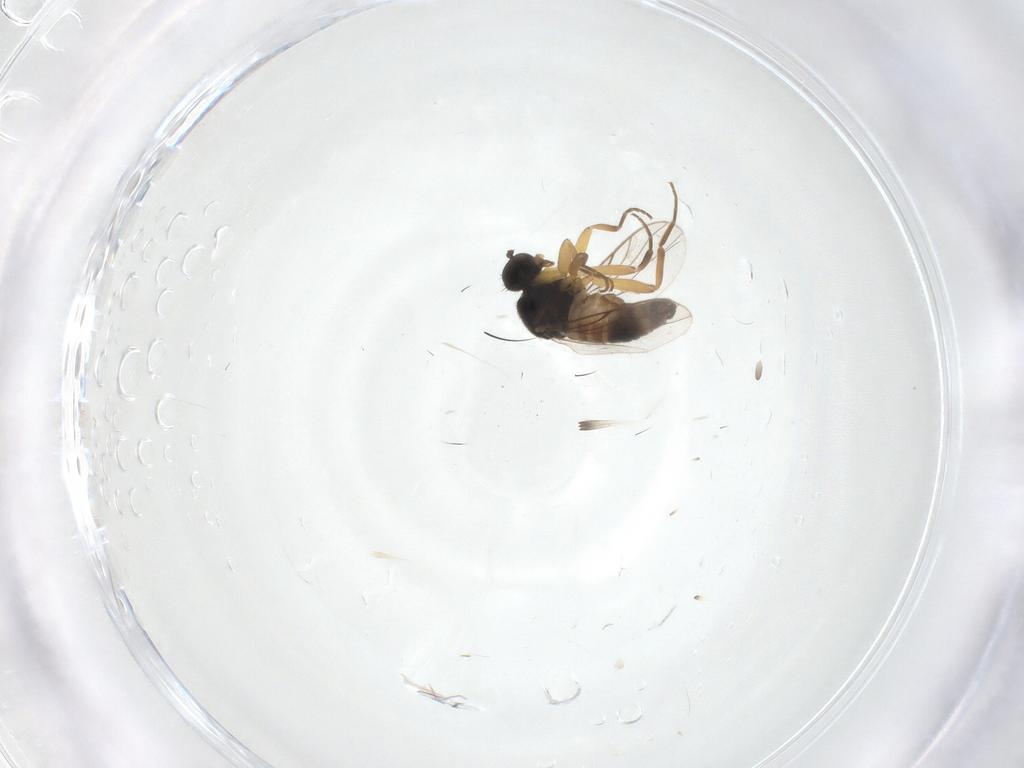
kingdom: Animalia
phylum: Arthropoda
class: Insecta
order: Diptera
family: Hybotidae
